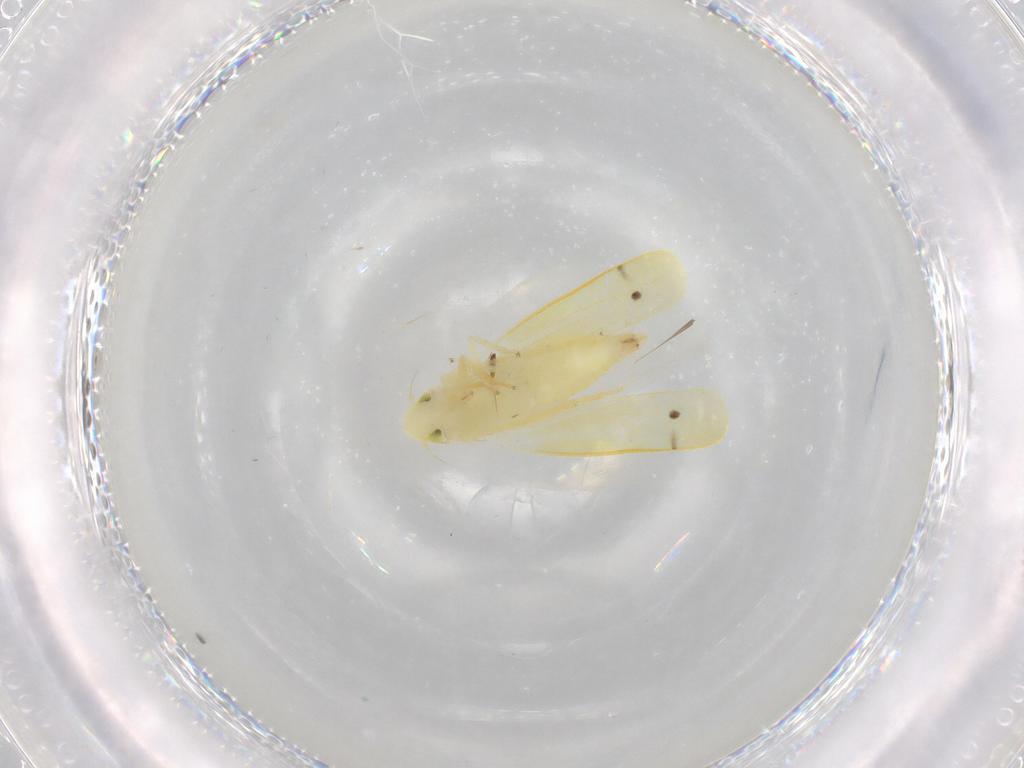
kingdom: Animalia
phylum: Arthropoda
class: Insecta
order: Hemiptera
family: Cicadellidae
